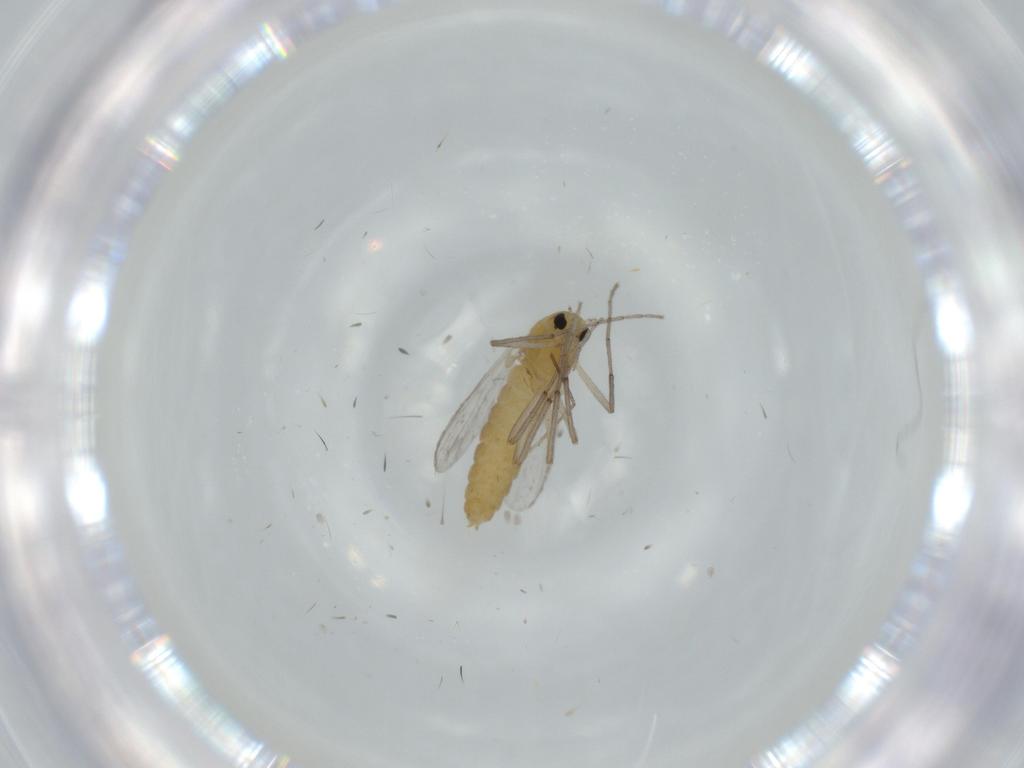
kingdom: Animalia
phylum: Arthropoda
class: Insecta
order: Diptera
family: Chironomidae
